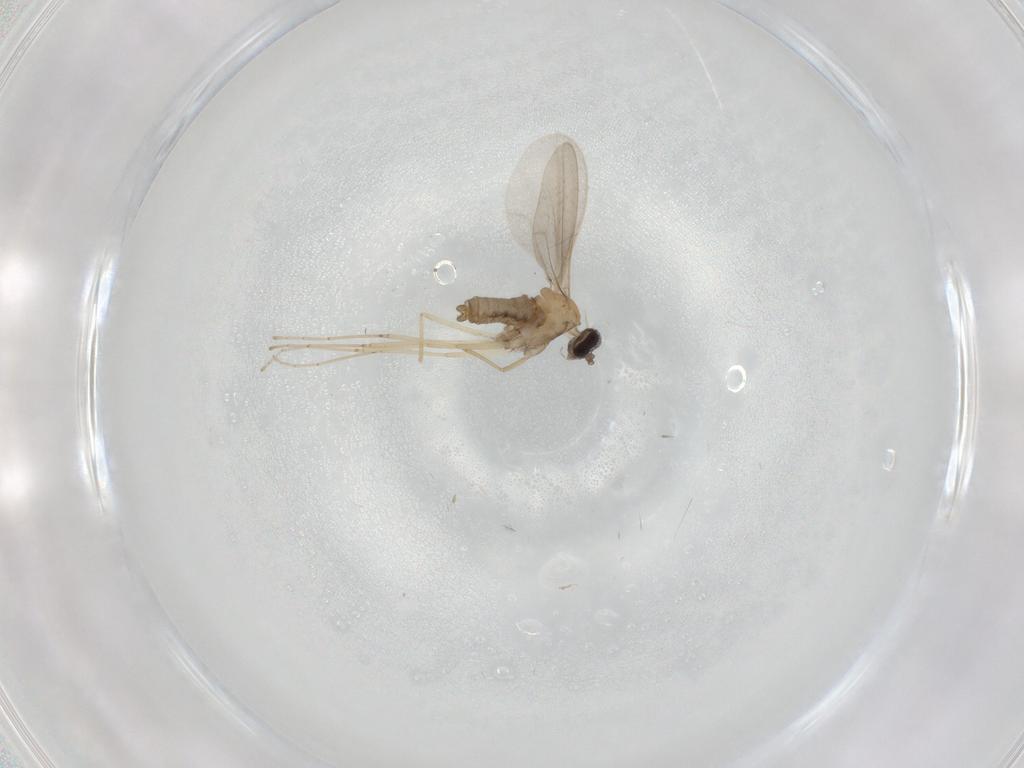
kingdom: Animalia
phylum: Arthropoda
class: Insecta
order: Diptera
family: Cecidomyiidae
